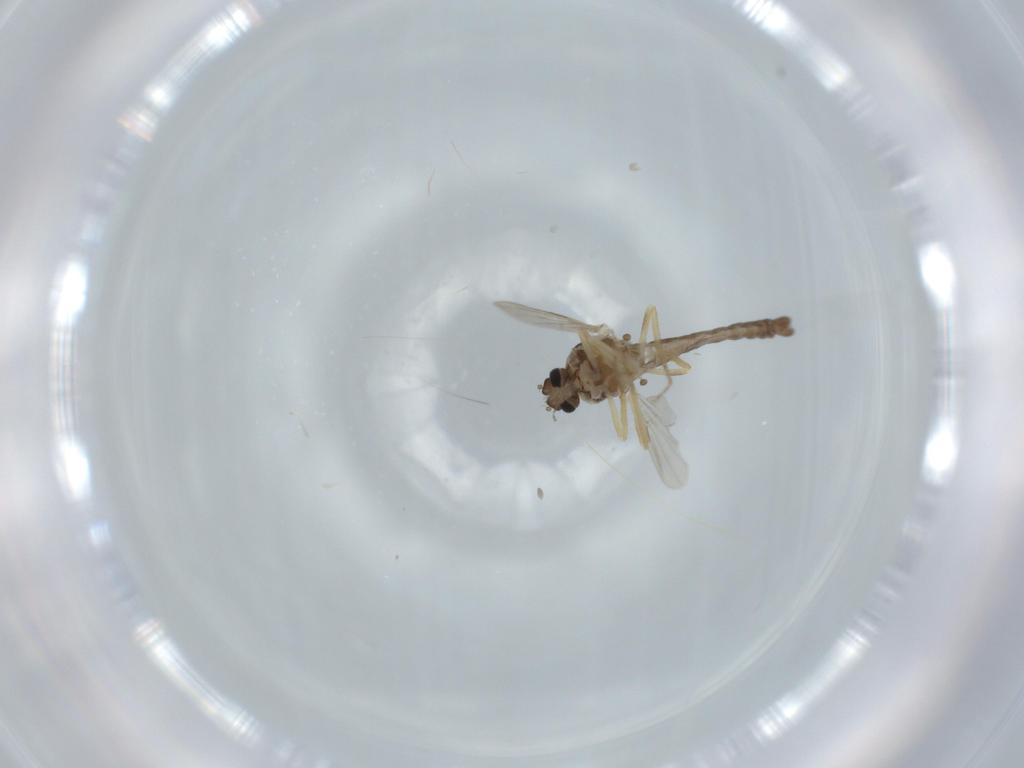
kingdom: Animalia
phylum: Arthropoda
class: Insecta
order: Diptera
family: Ceratopogonidae
